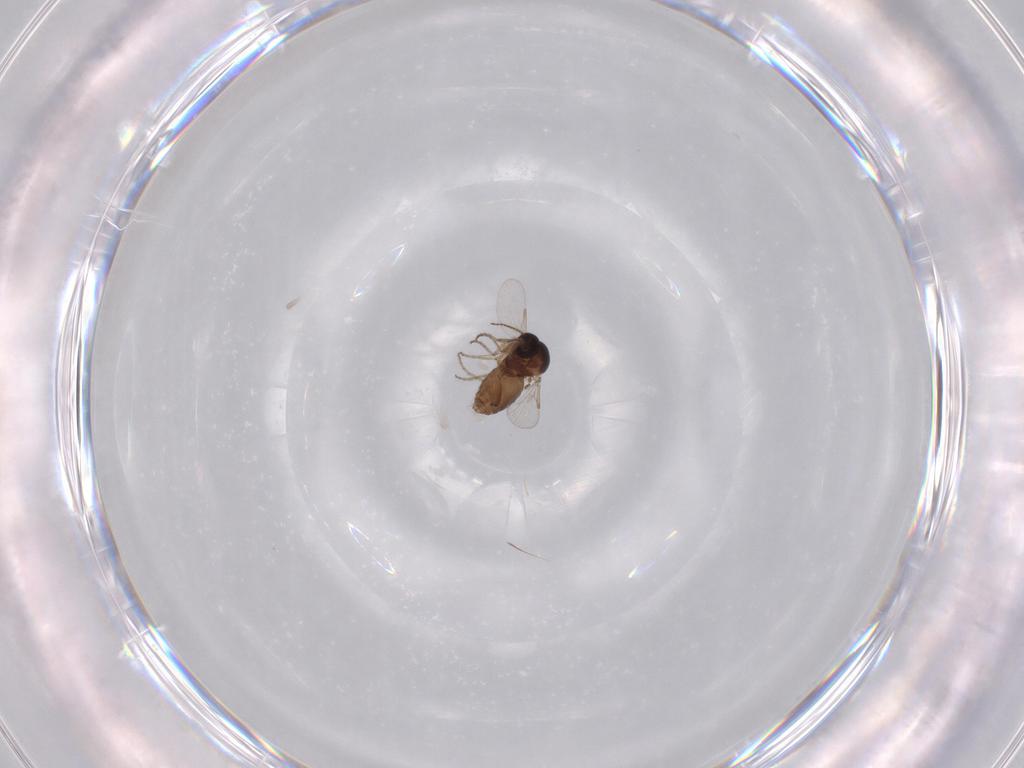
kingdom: Animalia
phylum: Arthropoda
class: Insecta
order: Diptera
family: Ceratopogonidae
